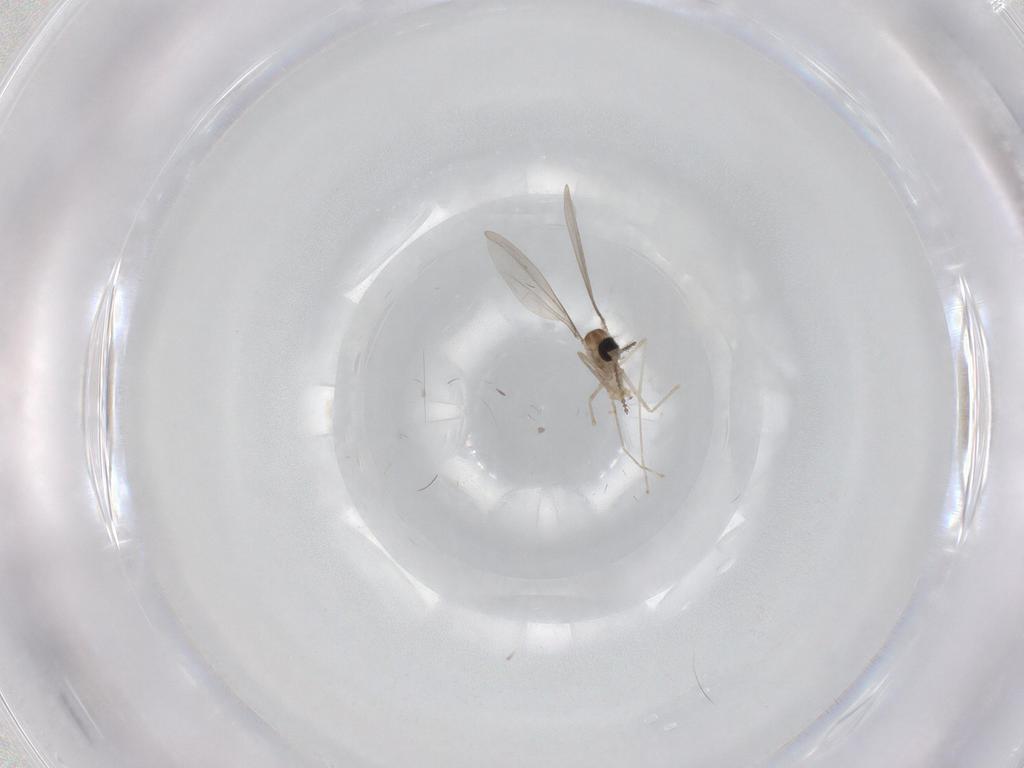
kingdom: Animalia
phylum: Arthropoda
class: Insecta
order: Diptera
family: Cecidomyiidae
